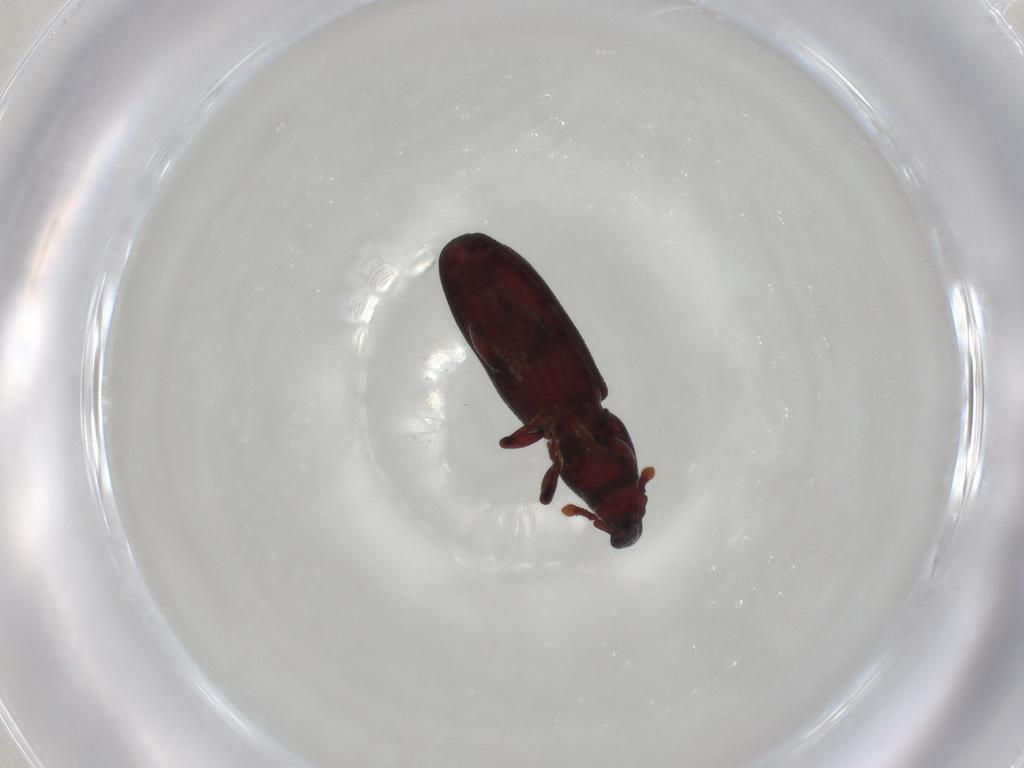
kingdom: Animalia
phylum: Arthropoda
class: Insecta
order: Coleoptera
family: Curculionidae
